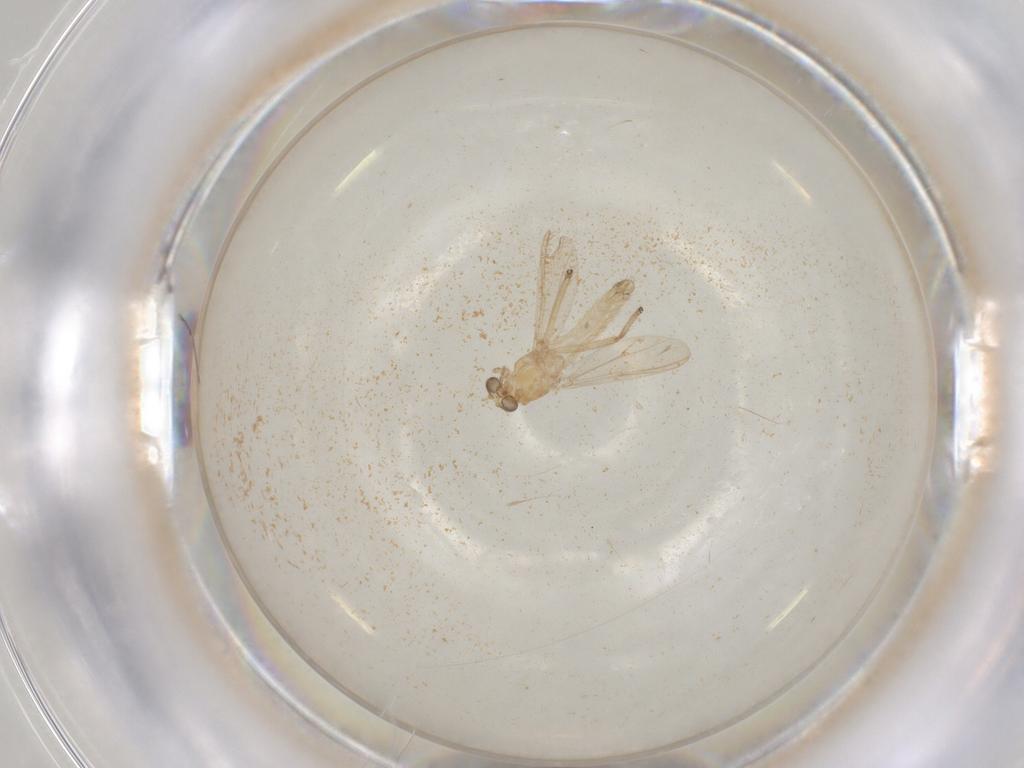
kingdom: Animalia
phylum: Arthropoda
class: Insecta
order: Diptera
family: Chironomidae
